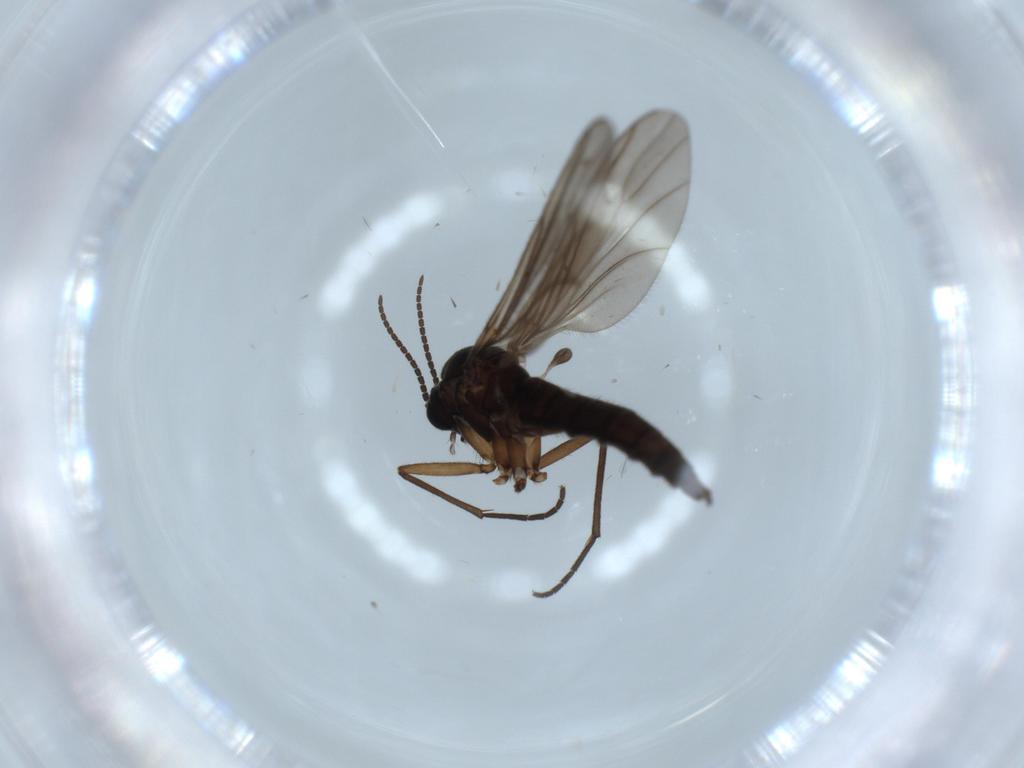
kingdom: Animalia
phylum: Arthropoda
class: Insecta
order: Diptera
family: Sciaridae
